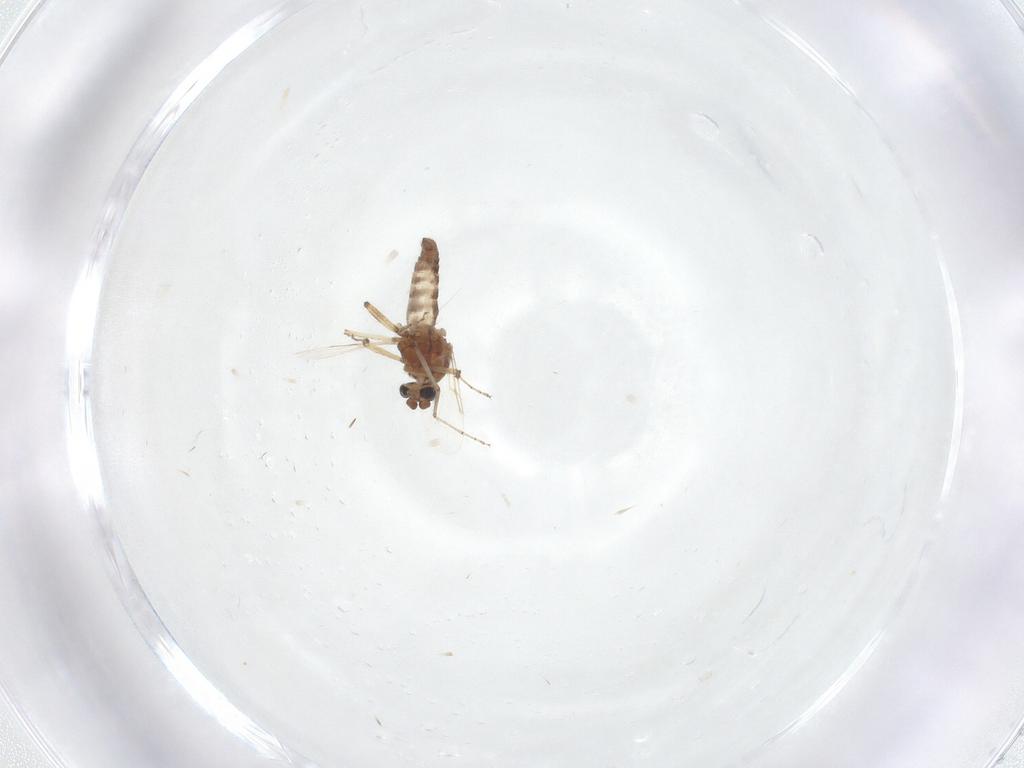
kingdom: Animalia
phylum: Arthropoda
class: Insecta
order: Diptera
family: Ceratopogonidae
